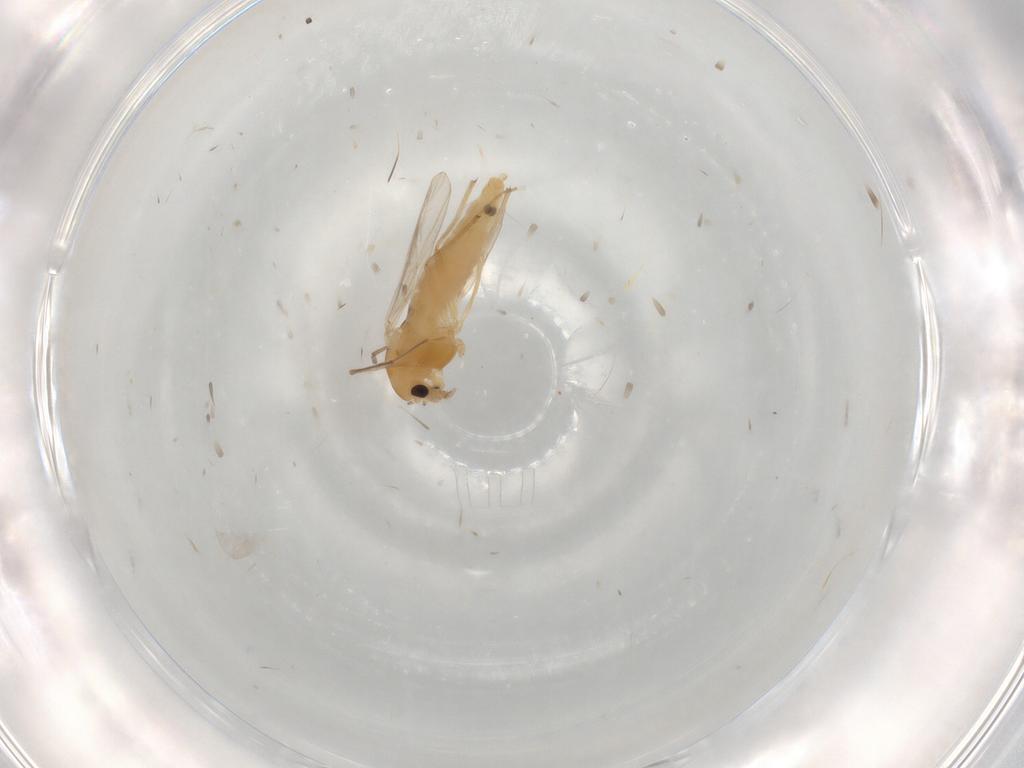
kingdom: Animalia
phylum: Arthropoda
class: Insecta
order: Diptera
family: Chironomidae
